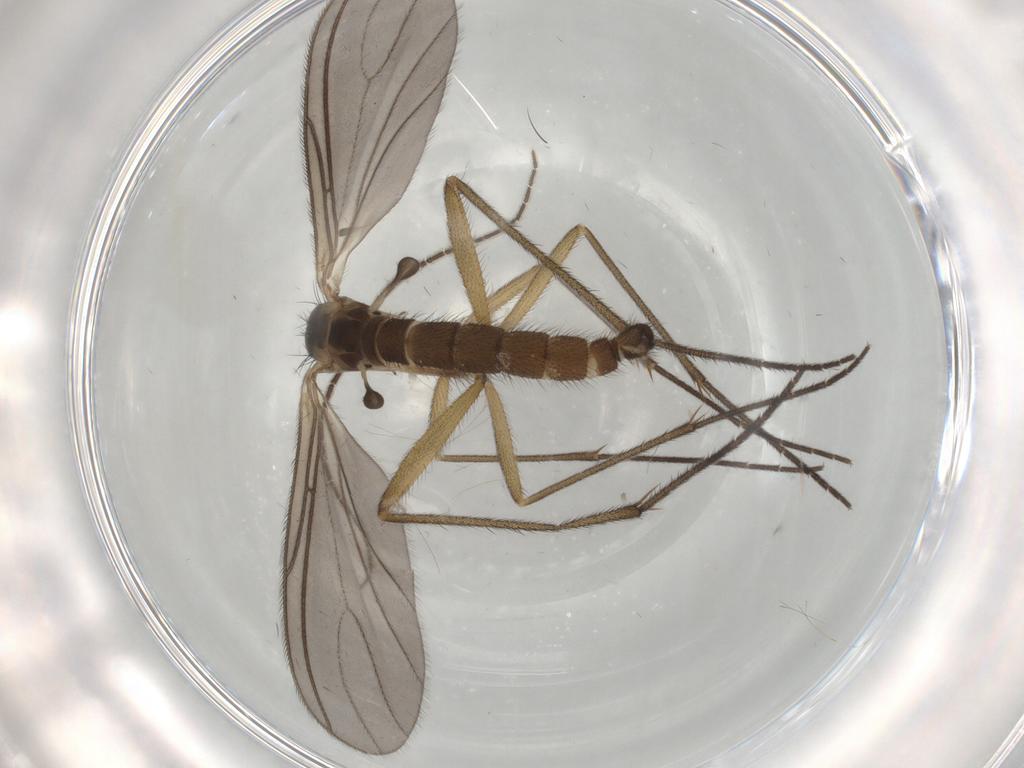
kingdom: Animalia
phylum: Arthropoda
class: Insecta
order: Diptera
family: Sciaridae
